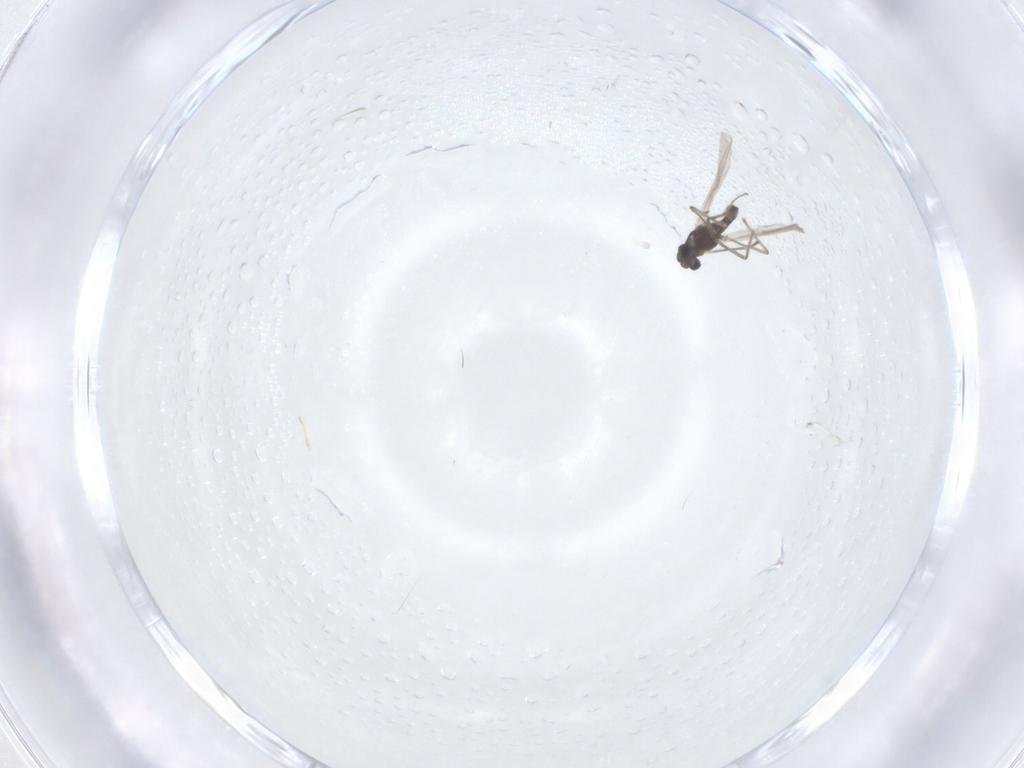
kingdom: Animalia
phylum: Arthropoda
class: Insecta
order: Diptera
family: Chironomidae
